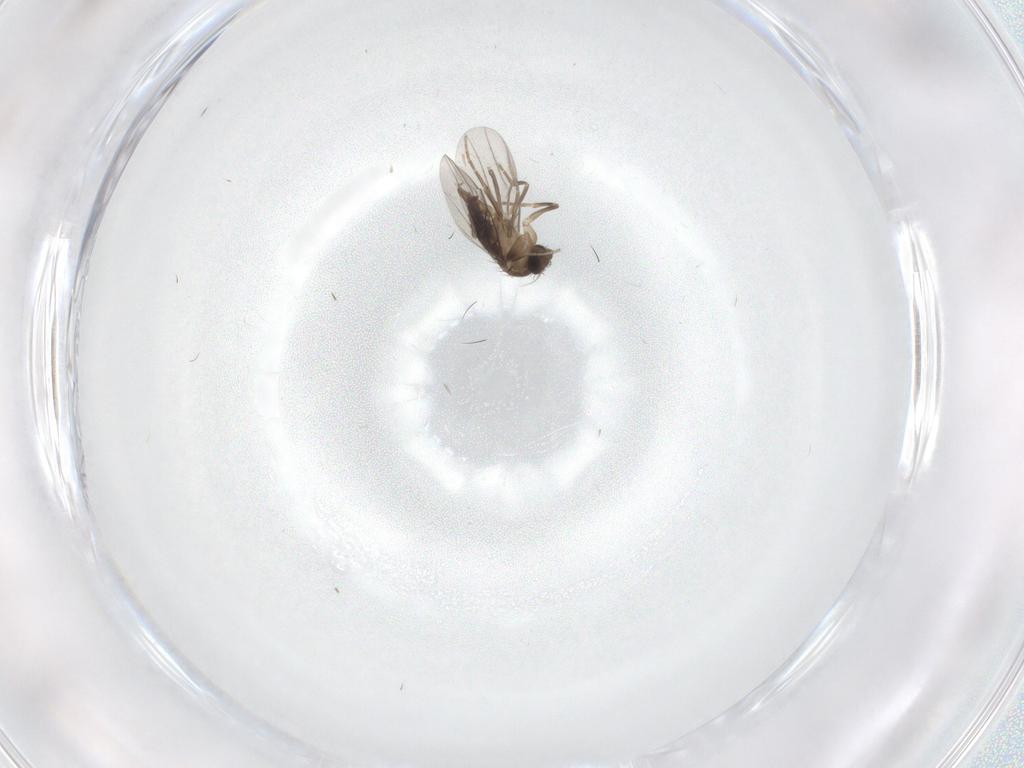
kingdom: Animalia
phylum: Arthropoda
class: Insecta
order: Diptera
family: Phoridae
